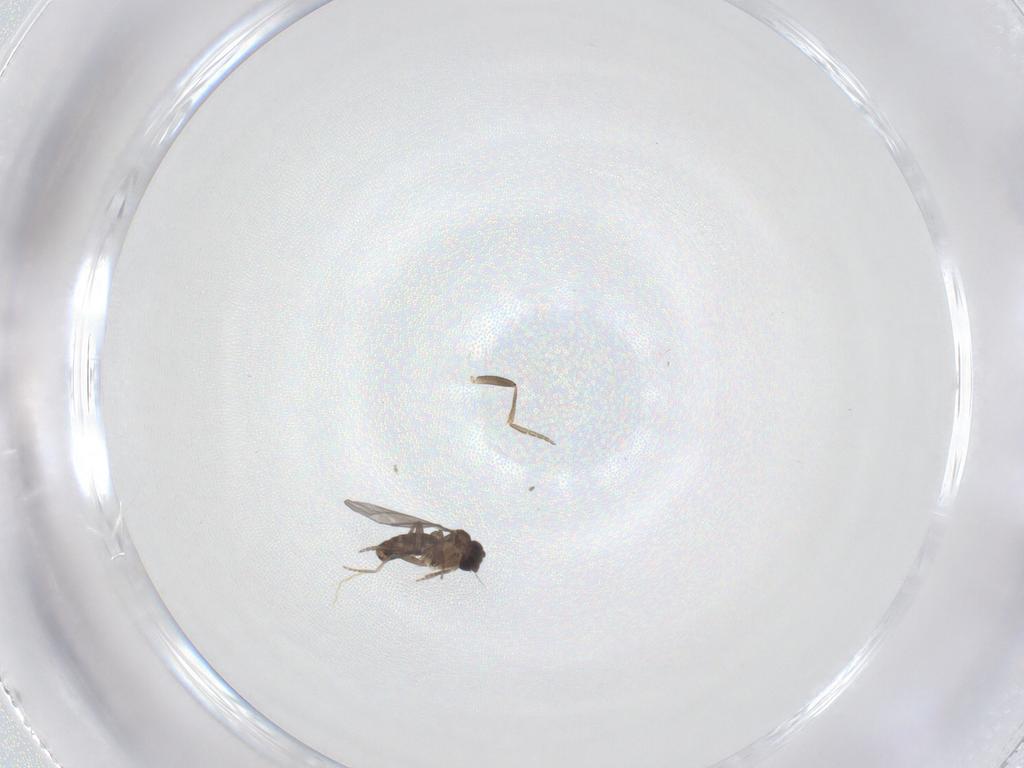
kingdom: Animalia
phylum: Arthropoda
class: Insecta
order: Diptera
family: Phoridae
